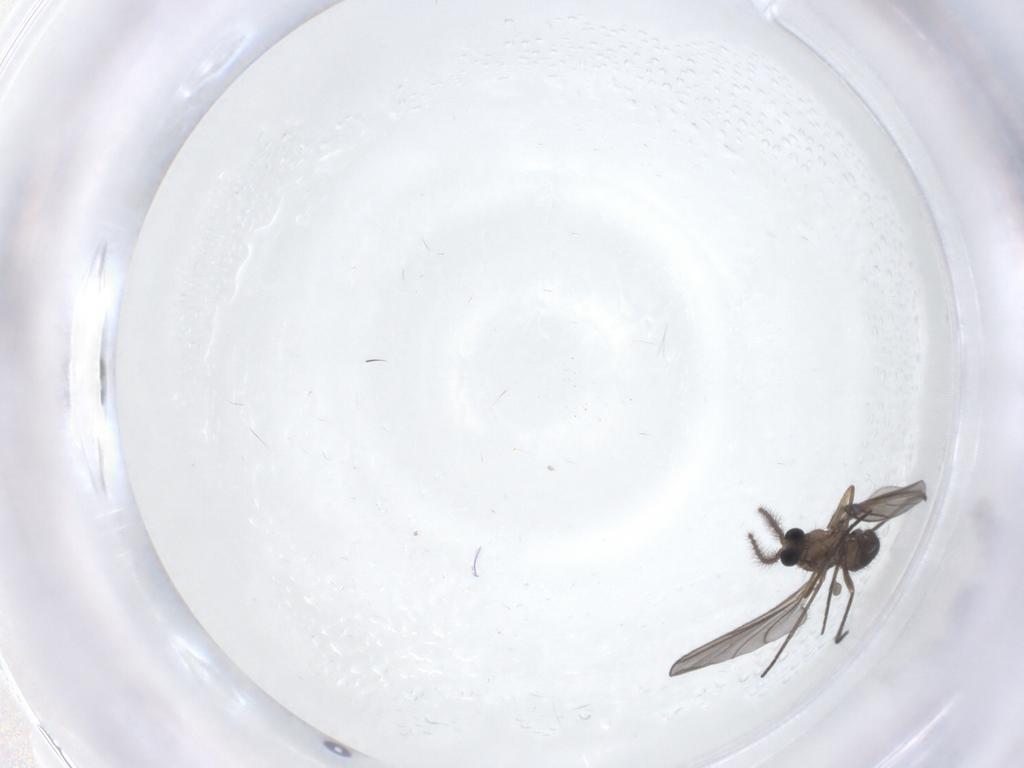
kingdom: Animalia
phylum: Arthropoda
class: Insecta
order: Diptera
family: Sciaridae
